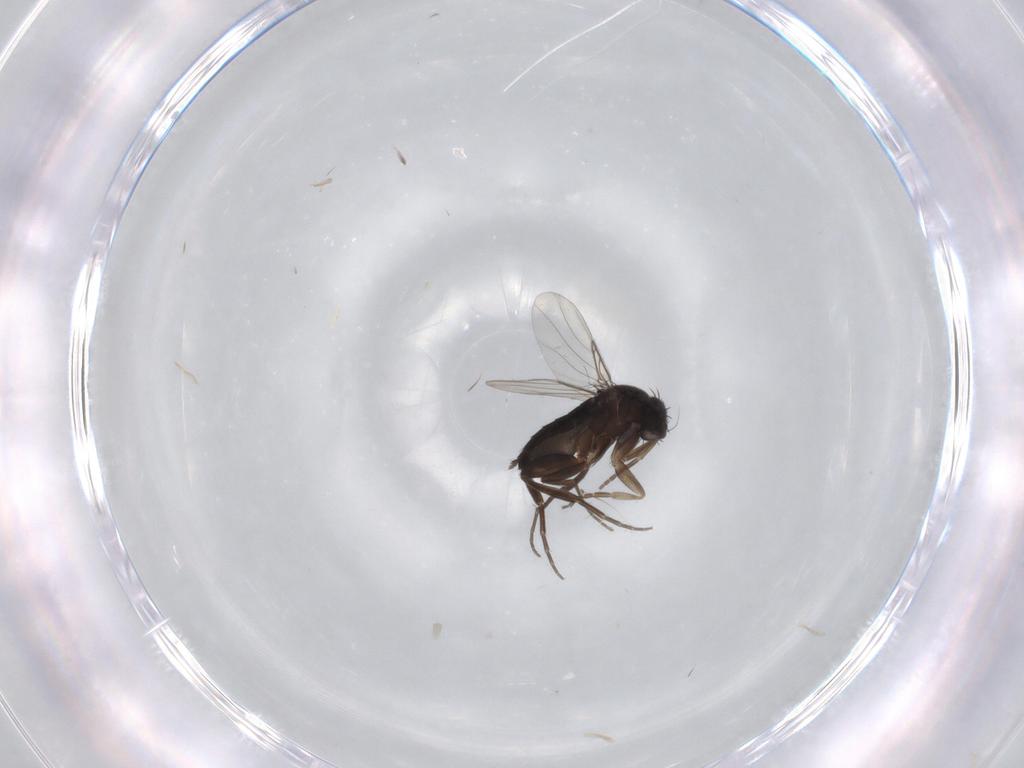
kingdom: Animalia
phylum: Arthropoda
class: Insecta
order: Diptera
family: Phoridae
